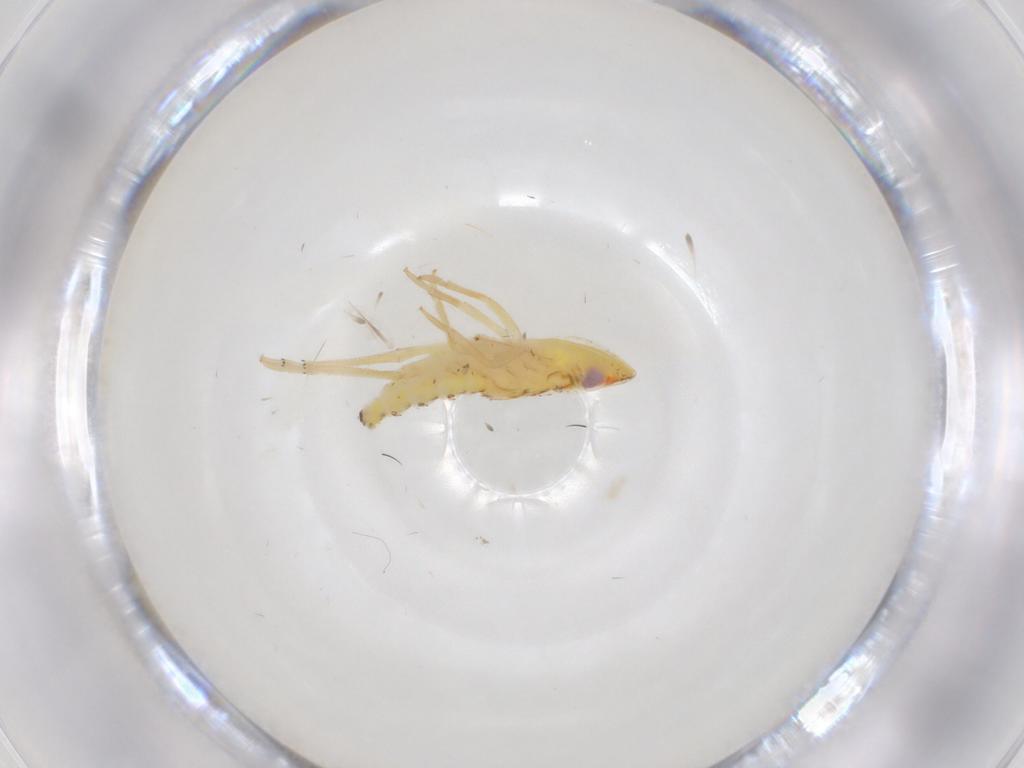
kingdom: Animalia
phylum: Arthropoda
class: Insecta
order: Hemiptera
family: Tropiduchidae
